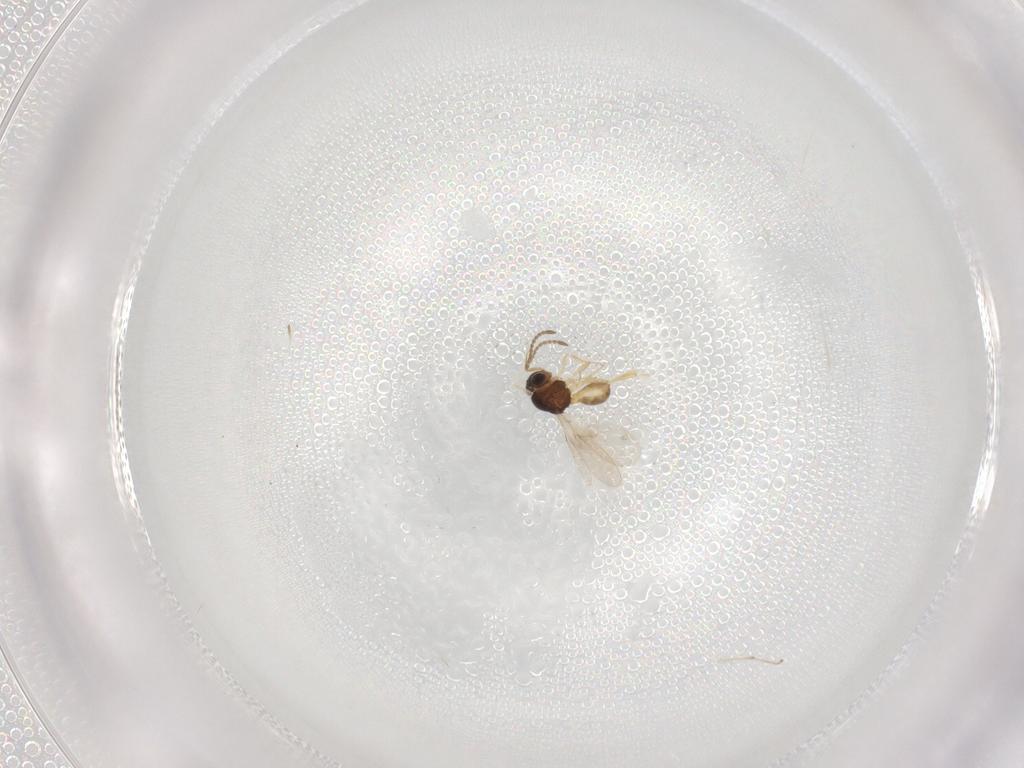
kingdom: Animalia
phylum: Arthropoda
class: Insecta
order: Hymenoptera
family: Scelionidae
